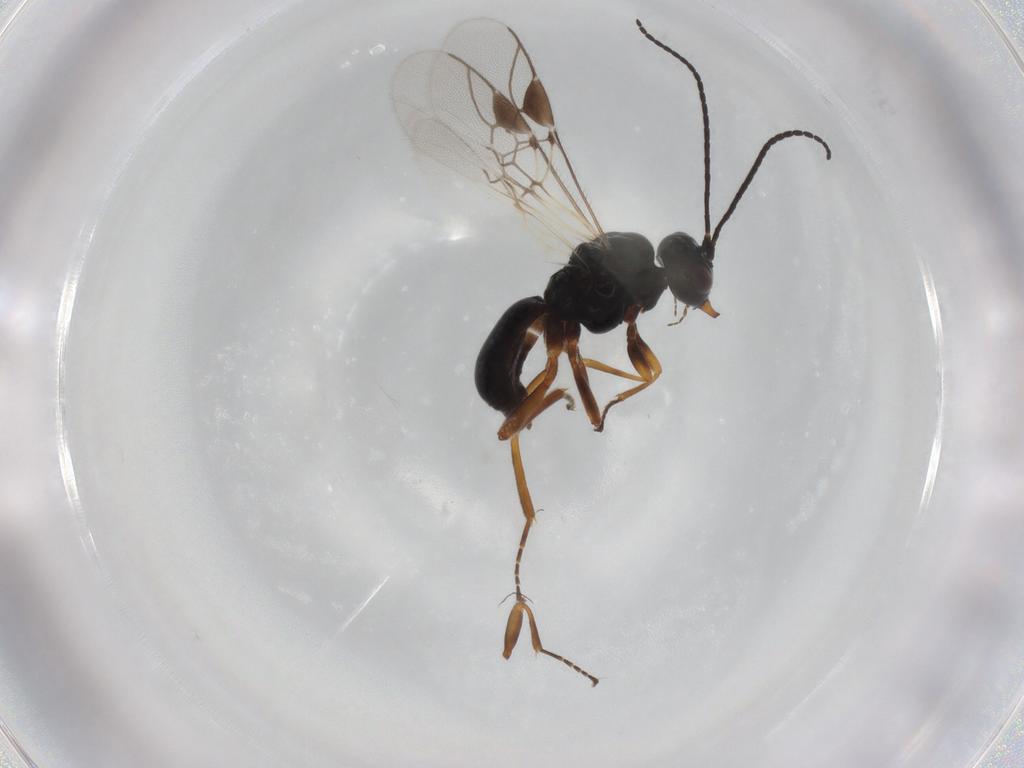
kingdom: Animalia
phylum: Arthropoda
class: Insecta
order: Hymenoptera
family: Braconidae
